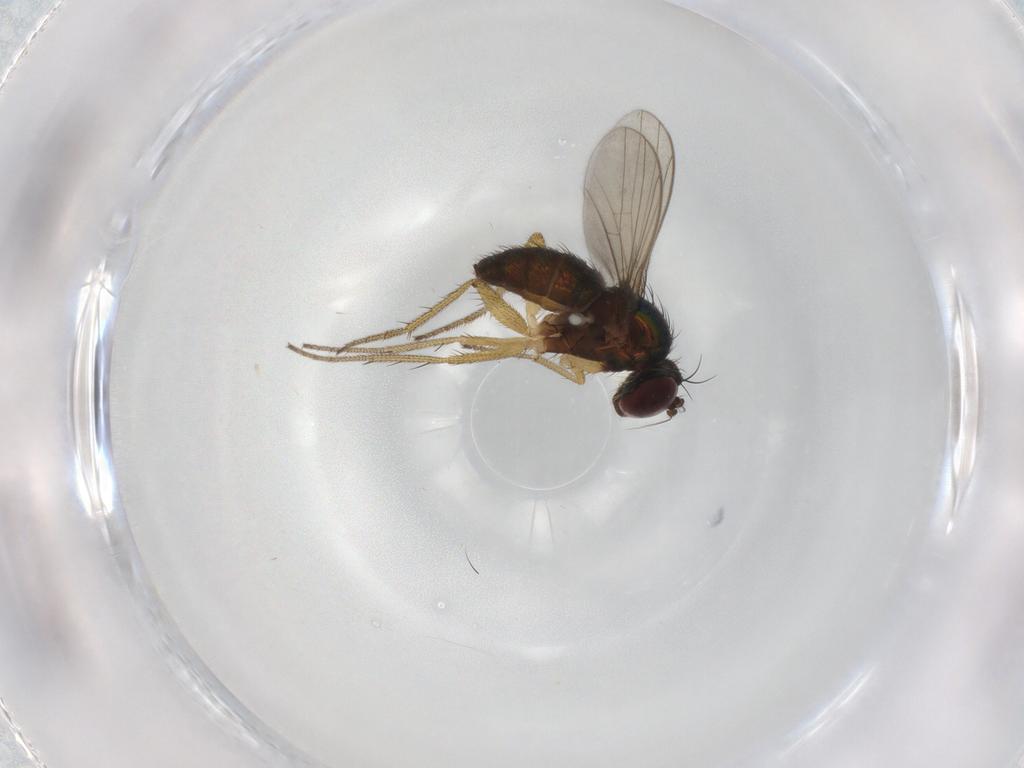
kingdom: Animalia
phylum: Arthropoda
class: Insecta
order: Diptera
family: Dolichopodidae
